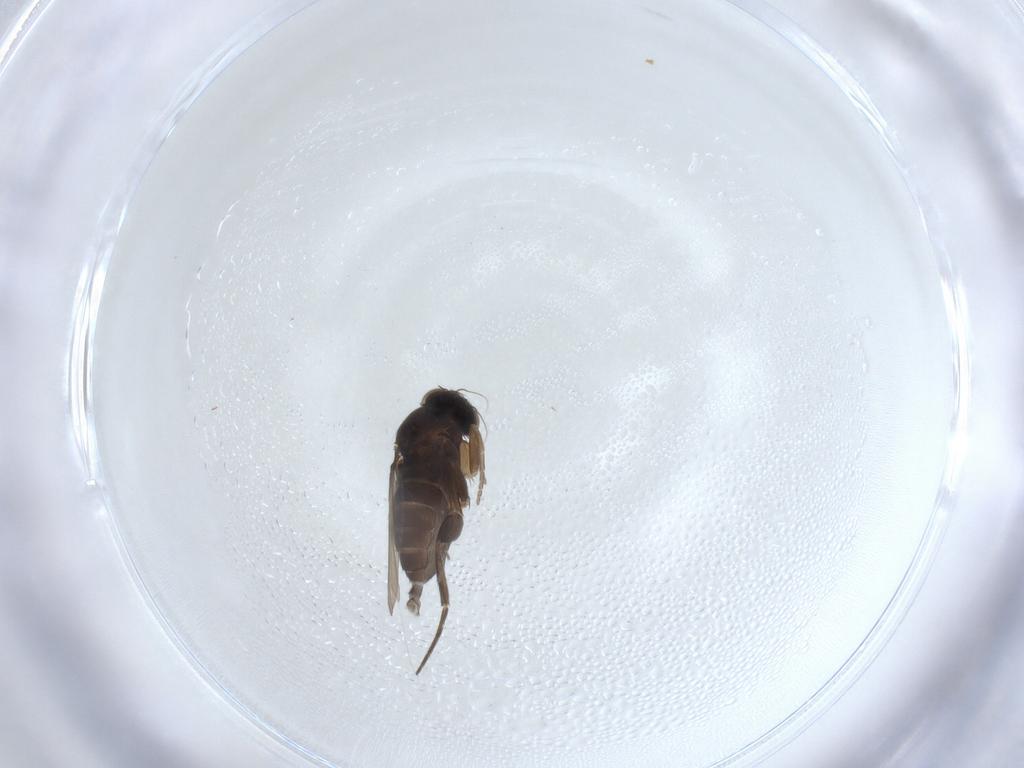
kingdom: Animalia
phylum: Arthropoda
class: Insecta
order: Diptera
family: Phoridae
